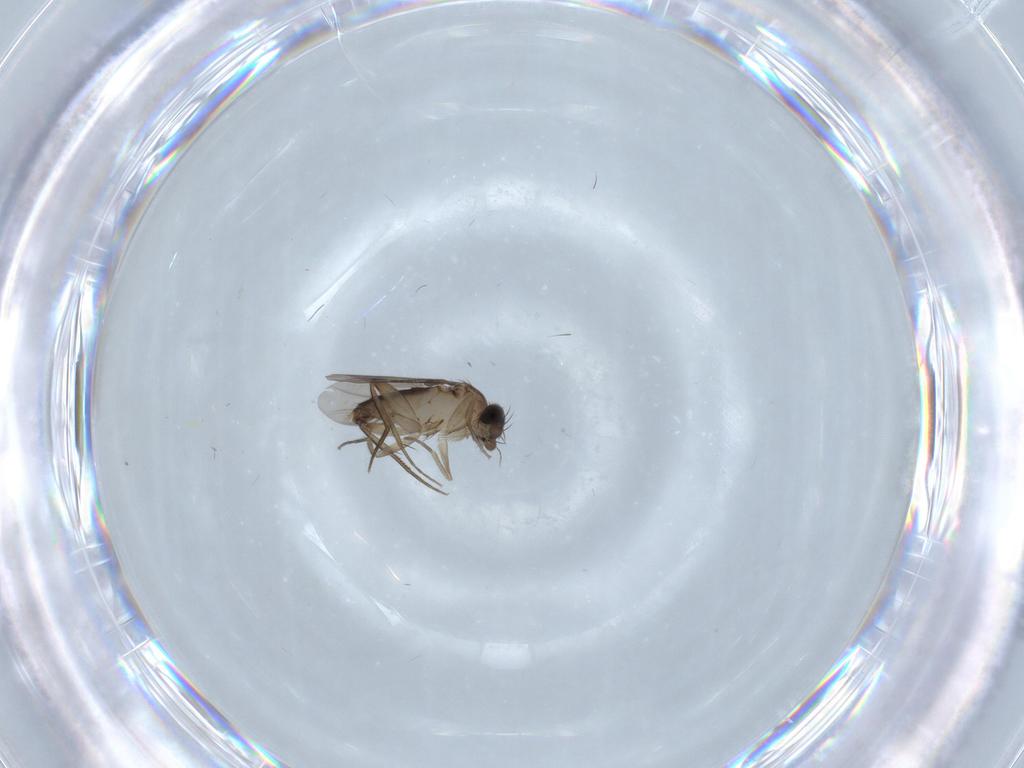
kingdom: Animalia
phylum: Arthropoda
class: Insecta
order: Diptera
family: Phoridae
